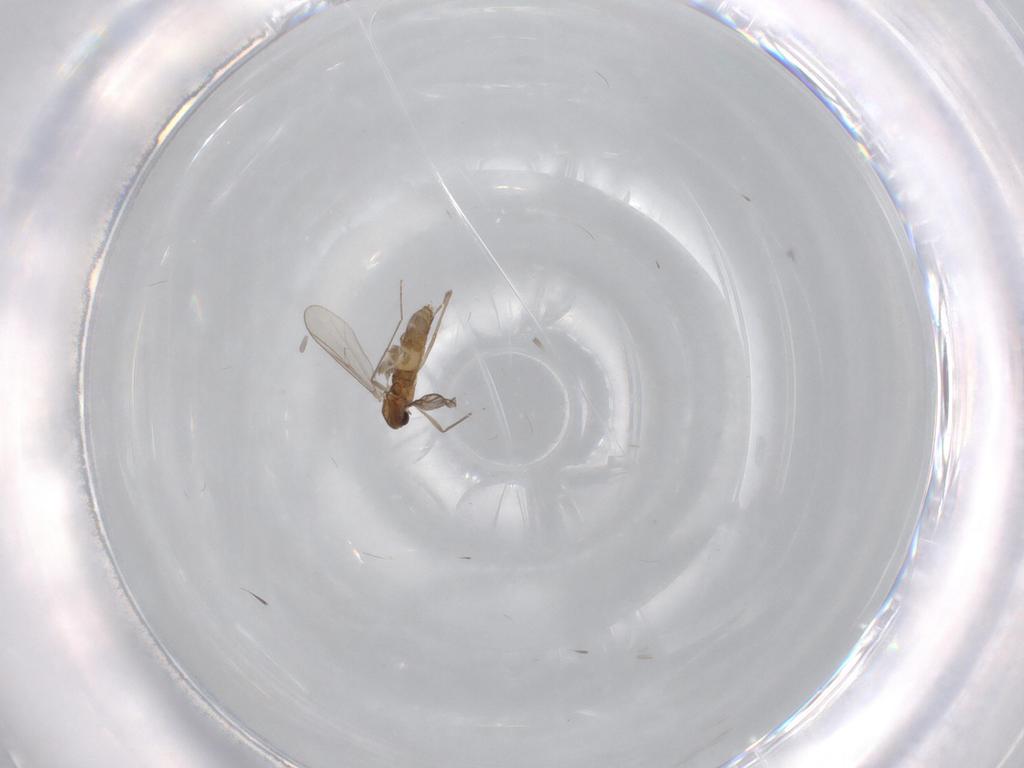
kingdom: Animalia
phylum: Arthropoda
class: Insecta
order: Diptera
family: Chironomidae
